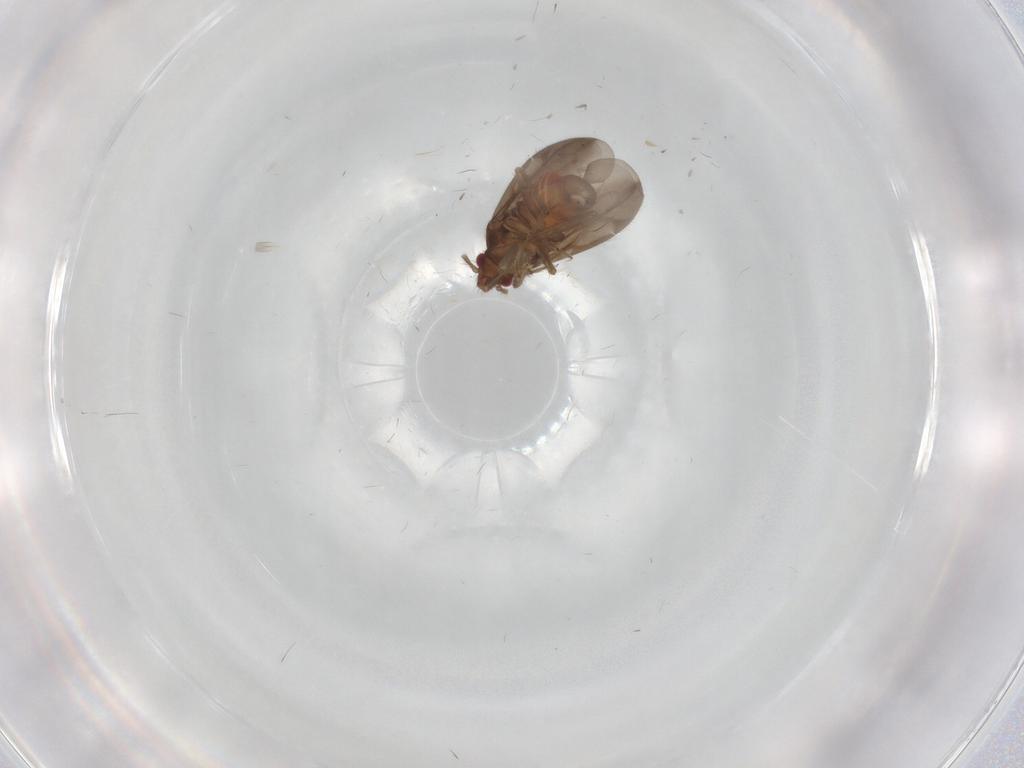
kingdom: Animalia
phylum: Arthropoda
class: Insecta
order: Hemiptera
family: Ceratocombidae
